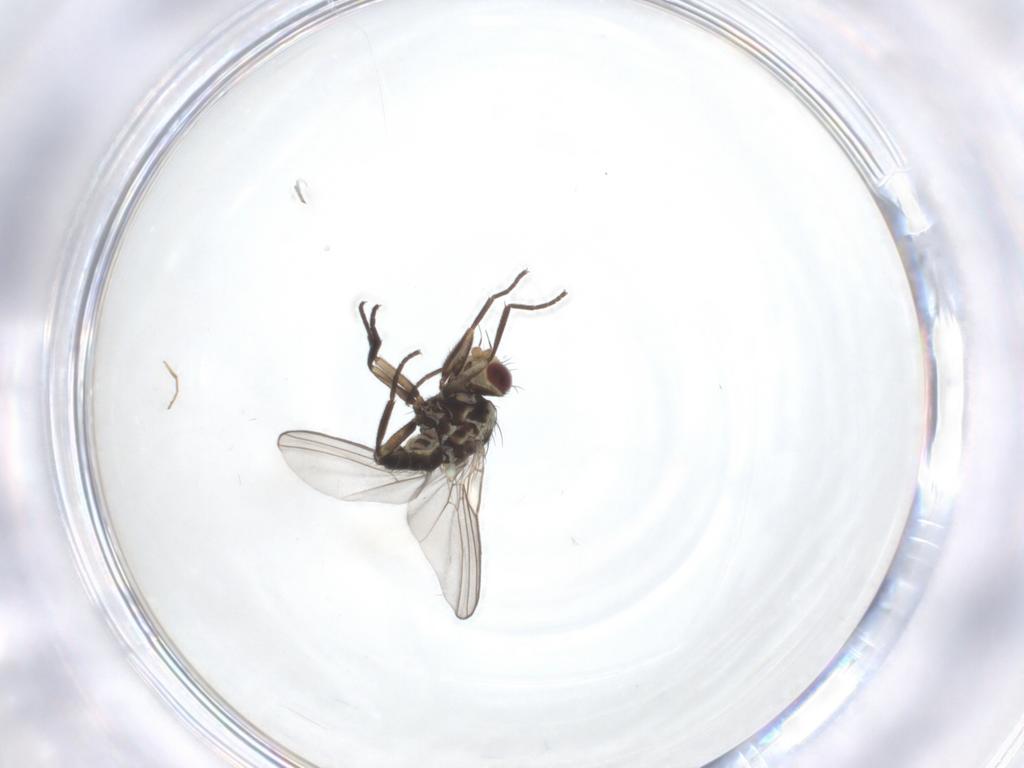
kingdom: Animalia
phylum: Arthropoda
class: Insecta
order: Diptera
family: Agromyzidae
